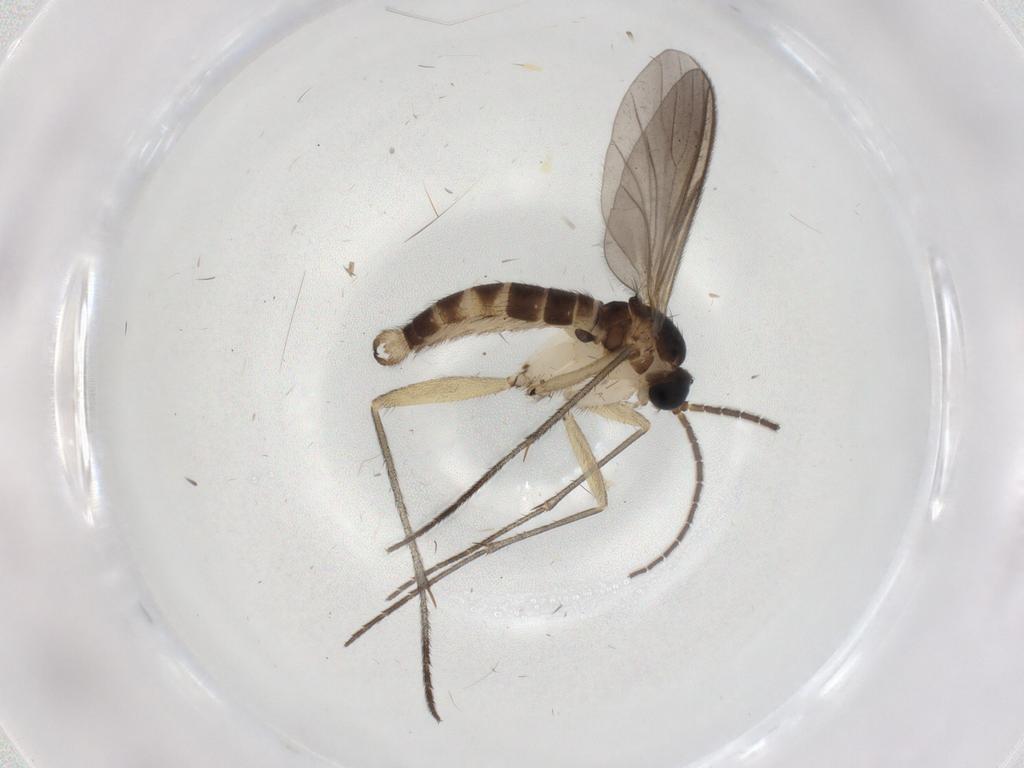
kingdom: Animalia
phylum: Arthropoda
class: Insecta
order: Diptera
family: Sciaridae
